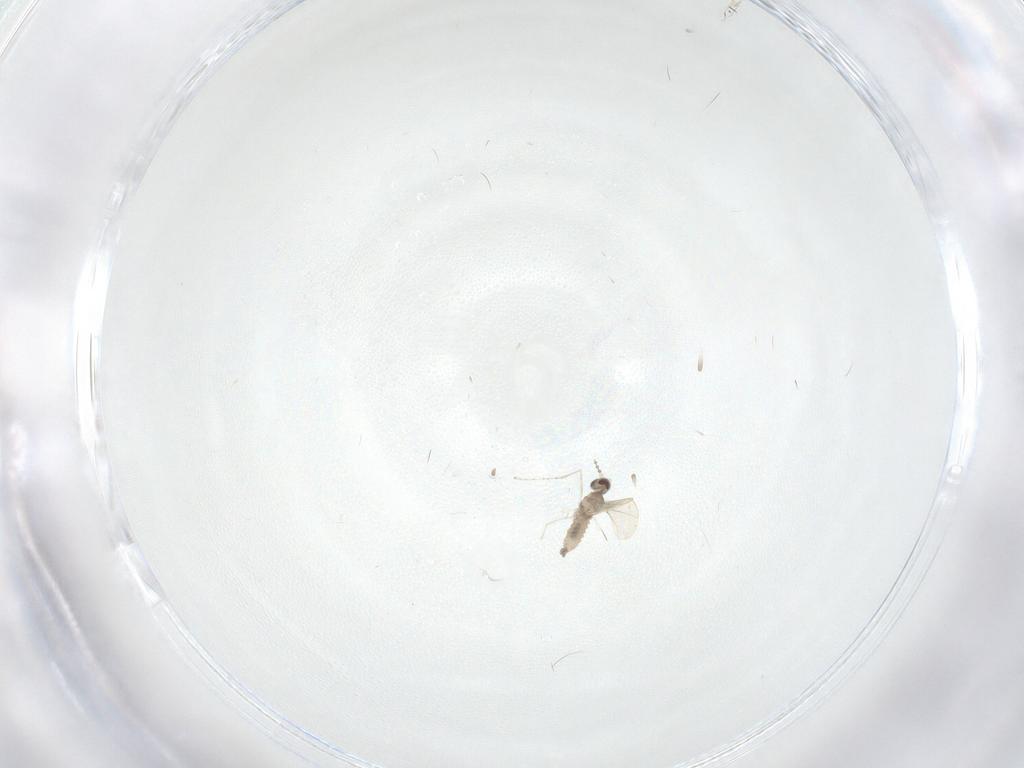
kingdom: Animalia
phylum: Arthropoda
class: Insecta
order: Diptera
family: Cecidomyiidae
